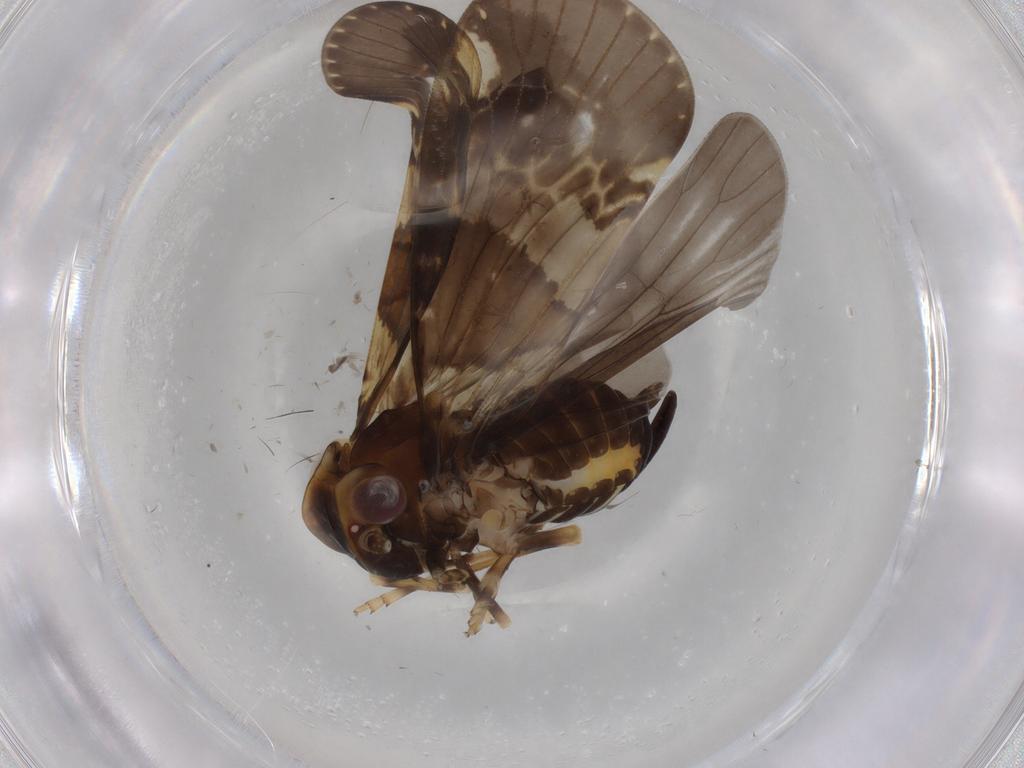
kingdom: Animalia
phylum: Arthropoda
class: Insecta
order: Hemiptera
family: Cixiidae
